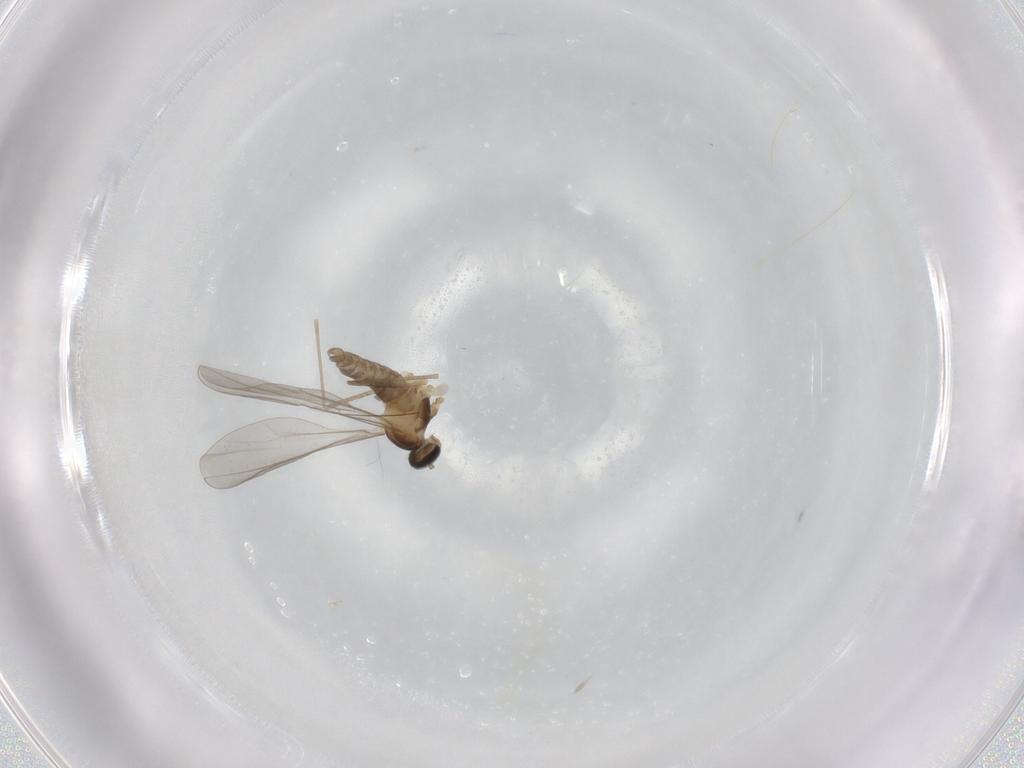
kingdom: Animalia
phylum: Arthropoda
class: Insecta
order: Diptera
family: Cecidomyiidae
